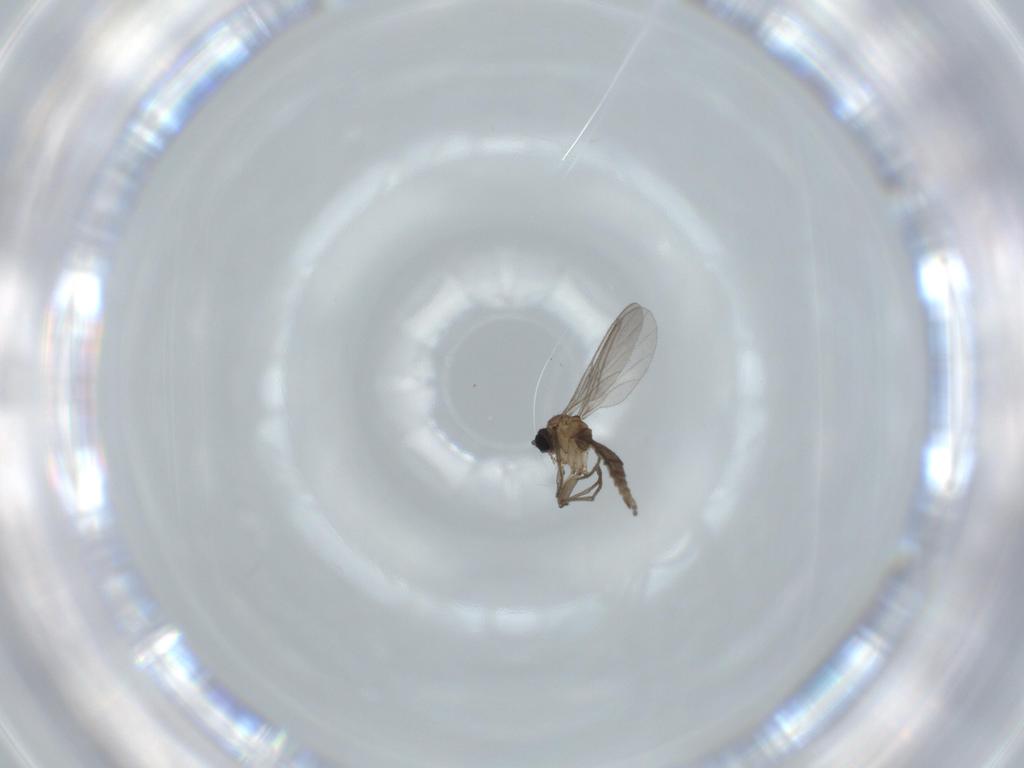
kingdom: Animalia
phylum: Arthropoda
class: Insecta
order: Diptera
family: Sciaridae
